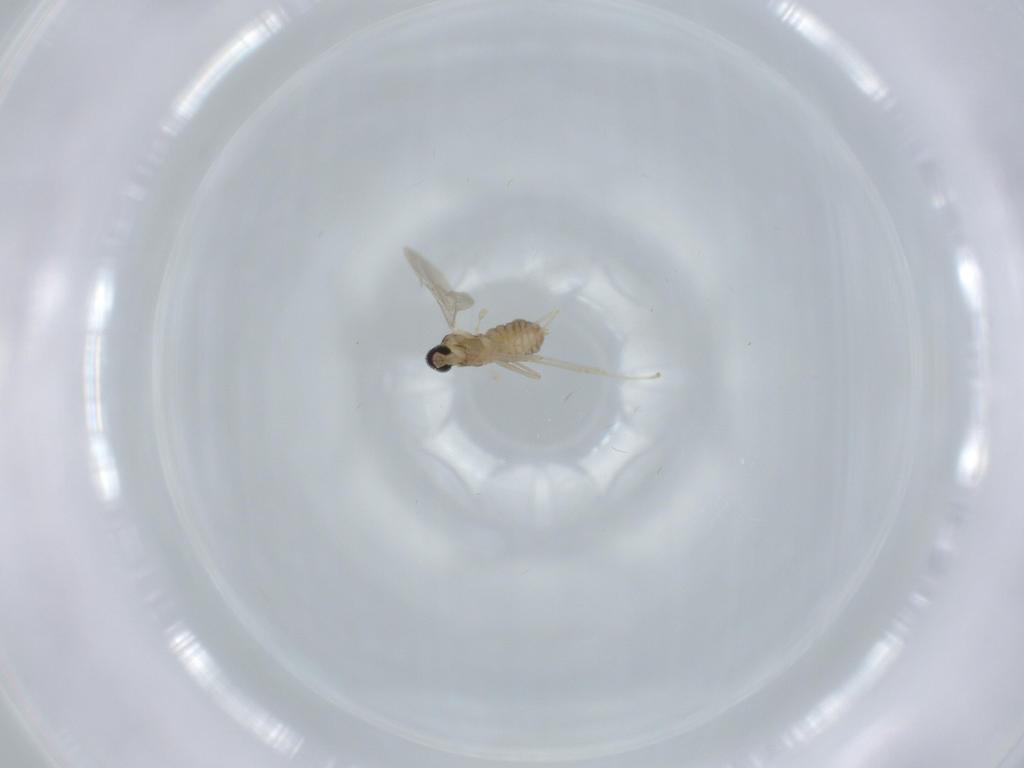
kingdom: Animalia
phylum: Arthropoda
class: Insecta
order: Diptera
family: Cecidomyiidae
